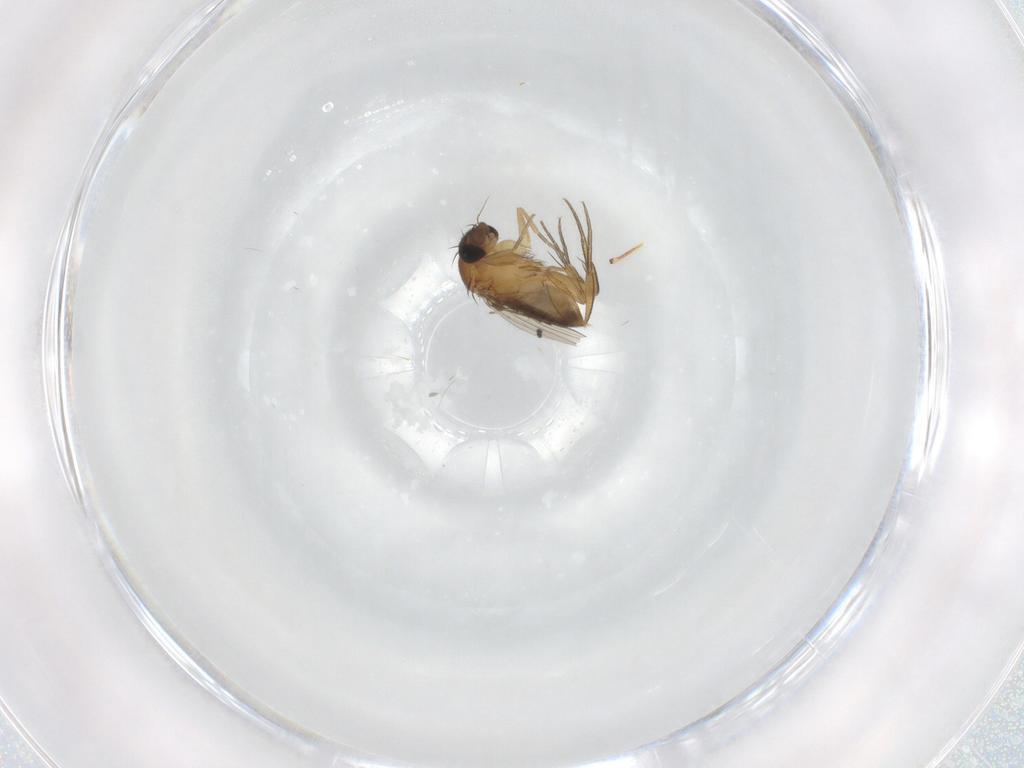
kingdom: Animalia
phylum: Arthropoda
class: Insecta
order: Diptera
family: Phoridae
